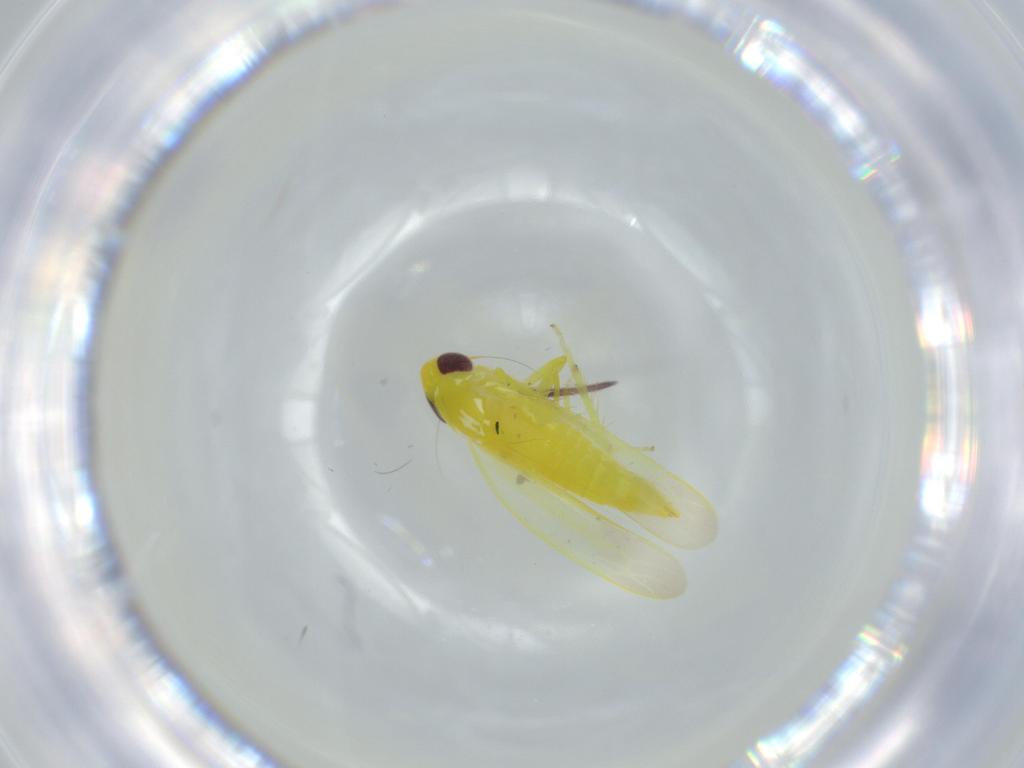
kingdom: Animalia
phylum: Arthropoda
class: Insecta
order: Hemiptera
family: Cicadellidae
